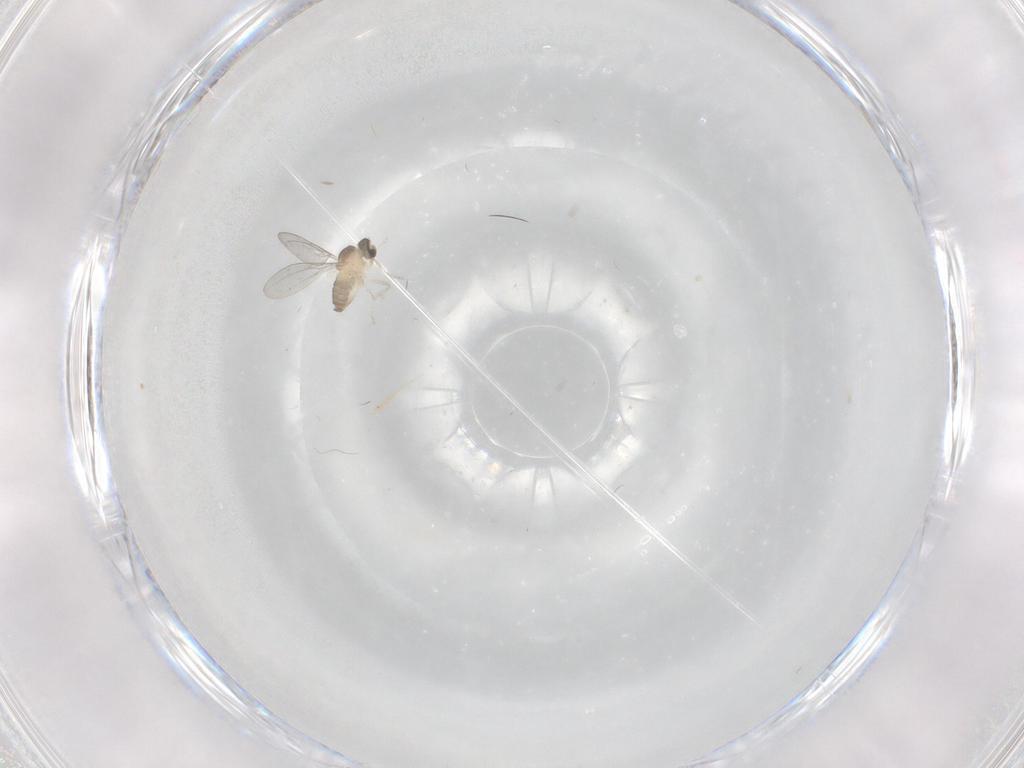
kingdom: Animalia
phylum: Arthropoda
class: Insecta
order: Diptera
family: Cecidomyiidae
